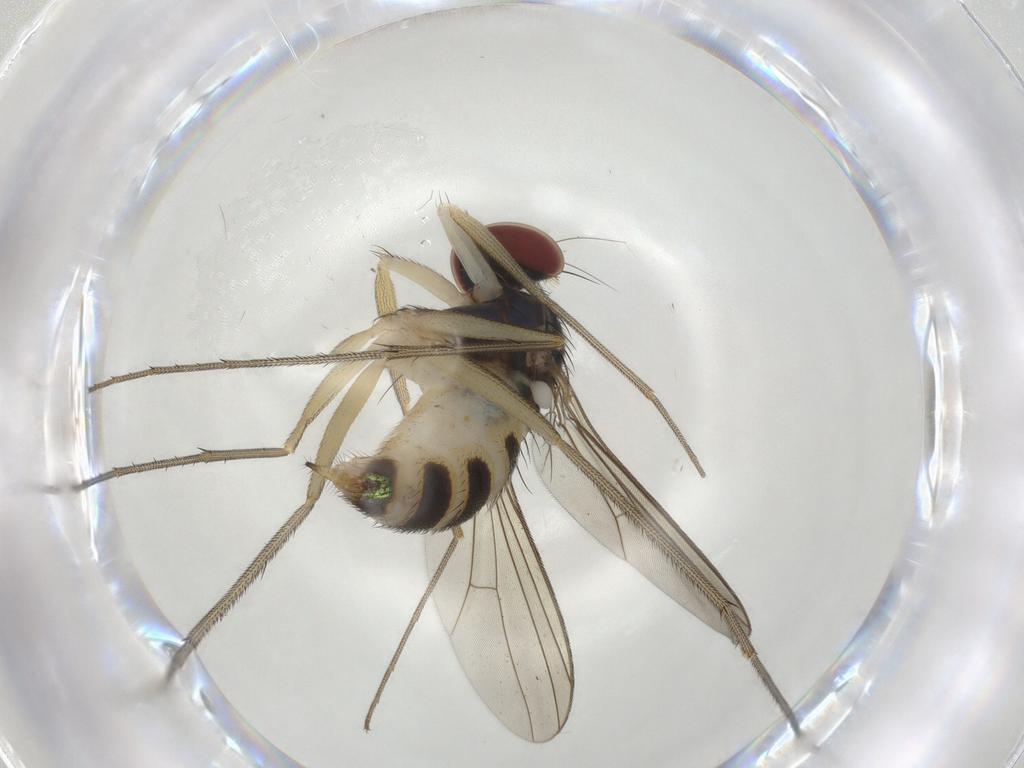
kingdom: Animalia
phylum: Arthropoda
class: Insecta
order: Diptera
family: Dolichopodidae
